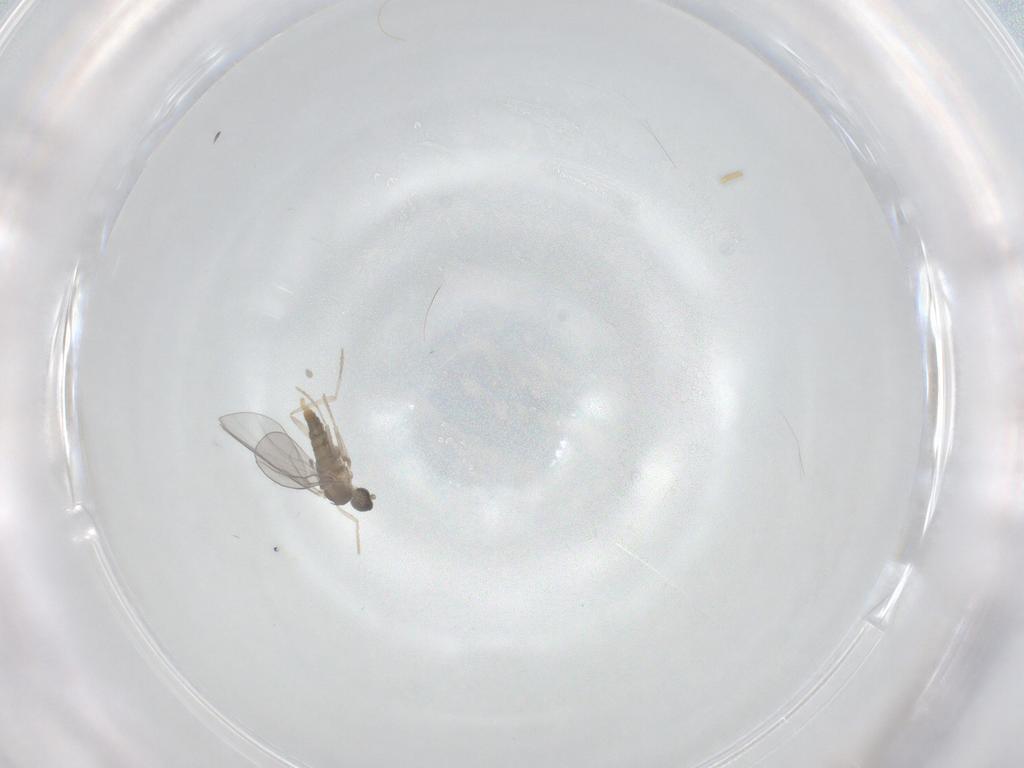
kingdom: Animalia
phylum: Arthropoda
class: Insecta
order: Diptera
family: Cecidomyiidae
